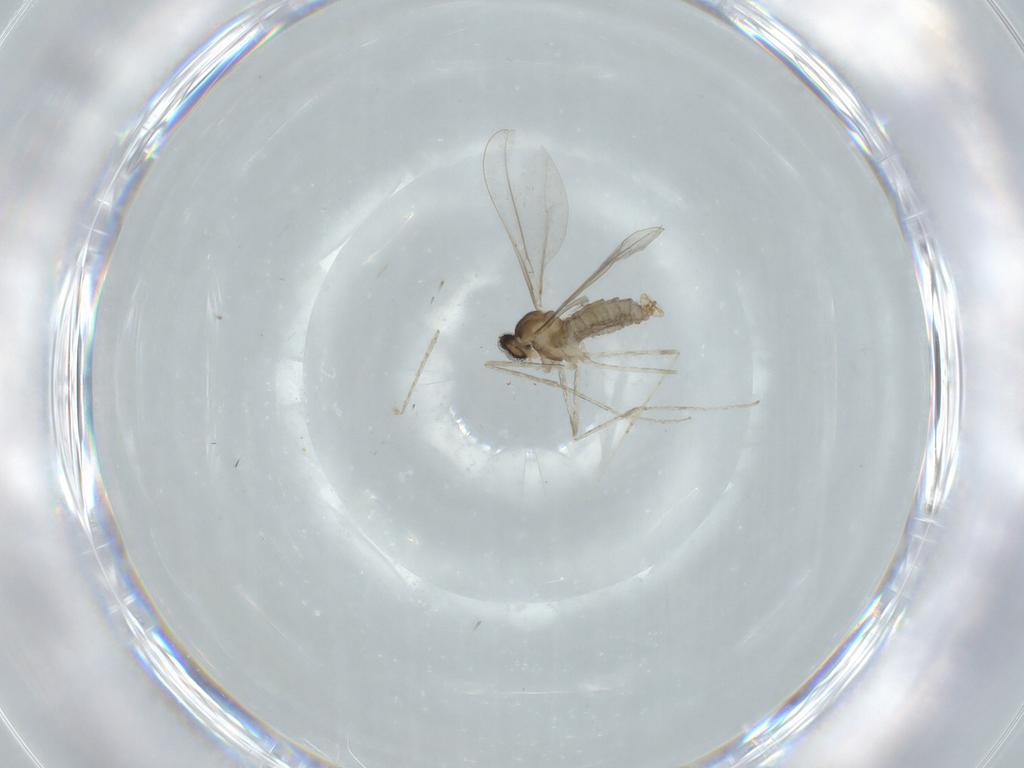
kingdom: Animalia
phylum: Arthropoda
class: Insecta
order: Diptera
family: Cecidomyiidae
